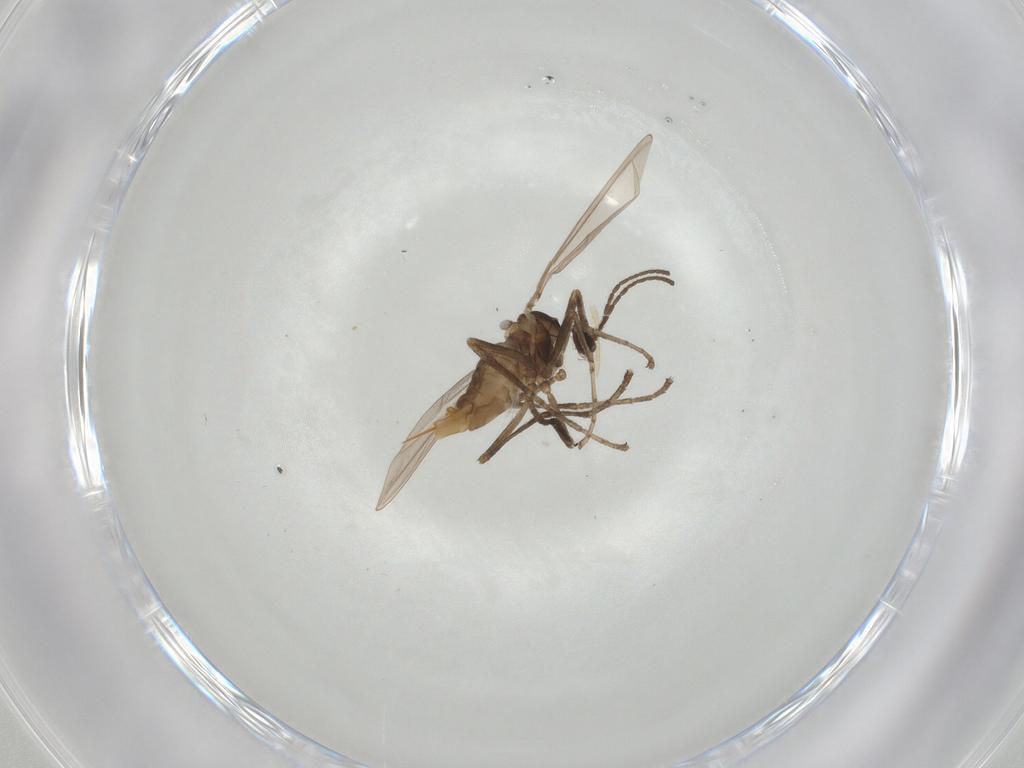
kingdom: Animalia
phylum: Arthropoda
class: Insecta
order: Diptera
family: Cecidomyiidae
